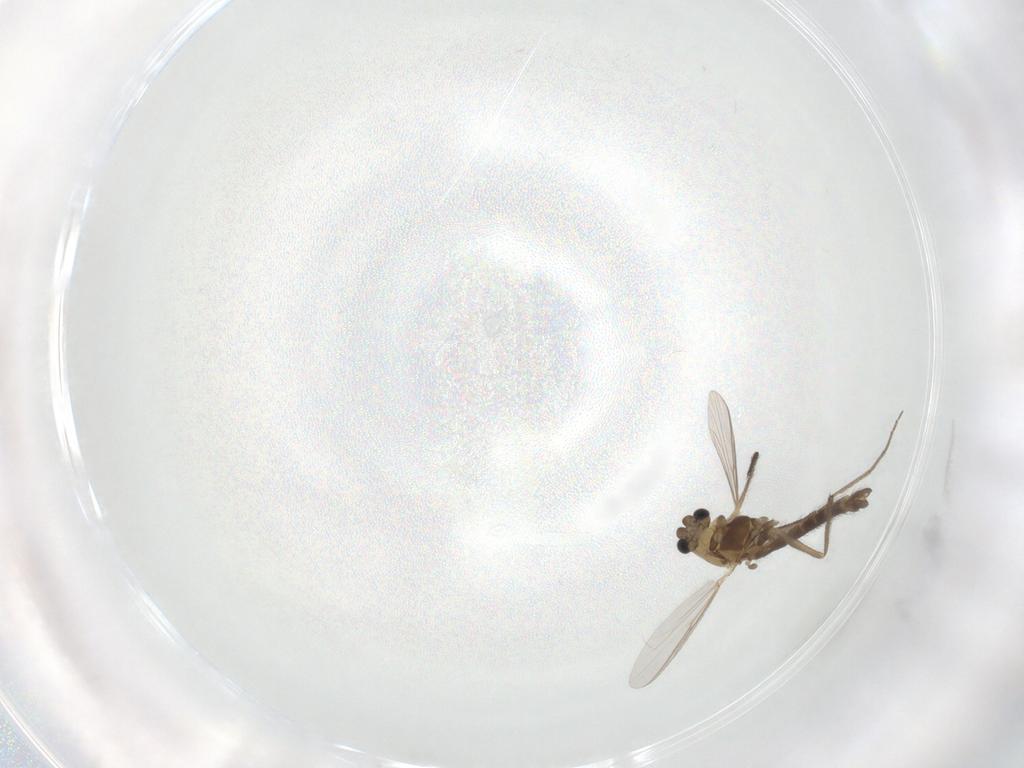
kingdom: Animalia
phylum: Arthropoda
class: Insecta
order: Diptera
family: Chironomidae
